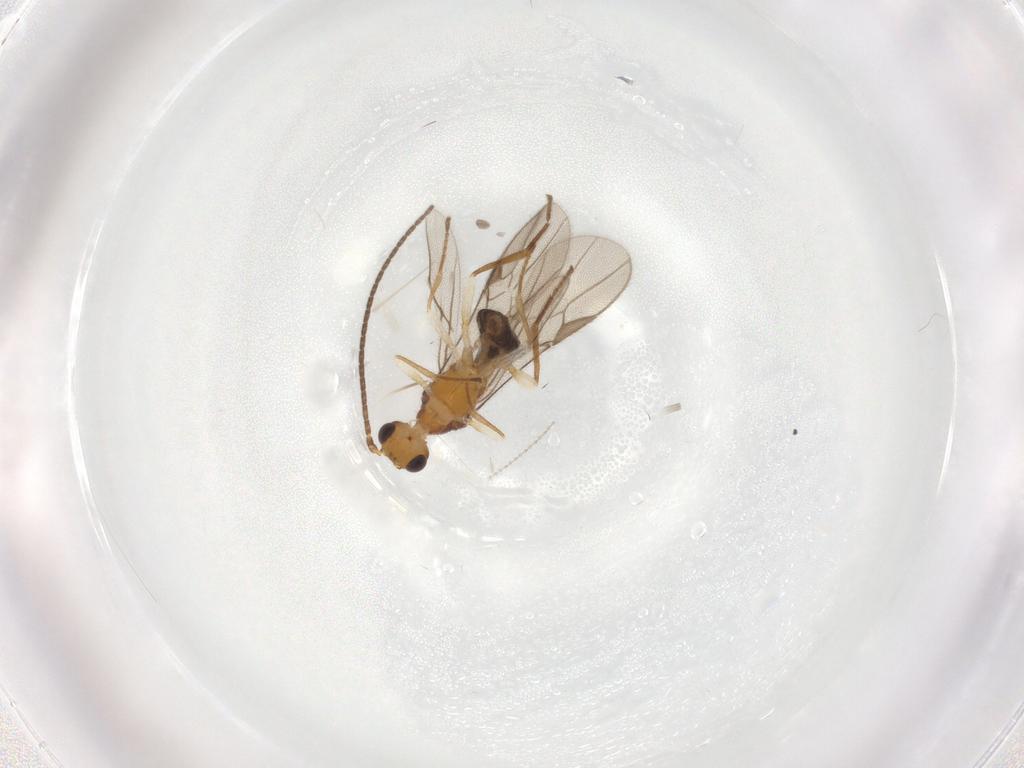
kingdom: Animalia
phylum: Arthropoda
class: Insecta
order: Hymenoptera
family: Braconidae
